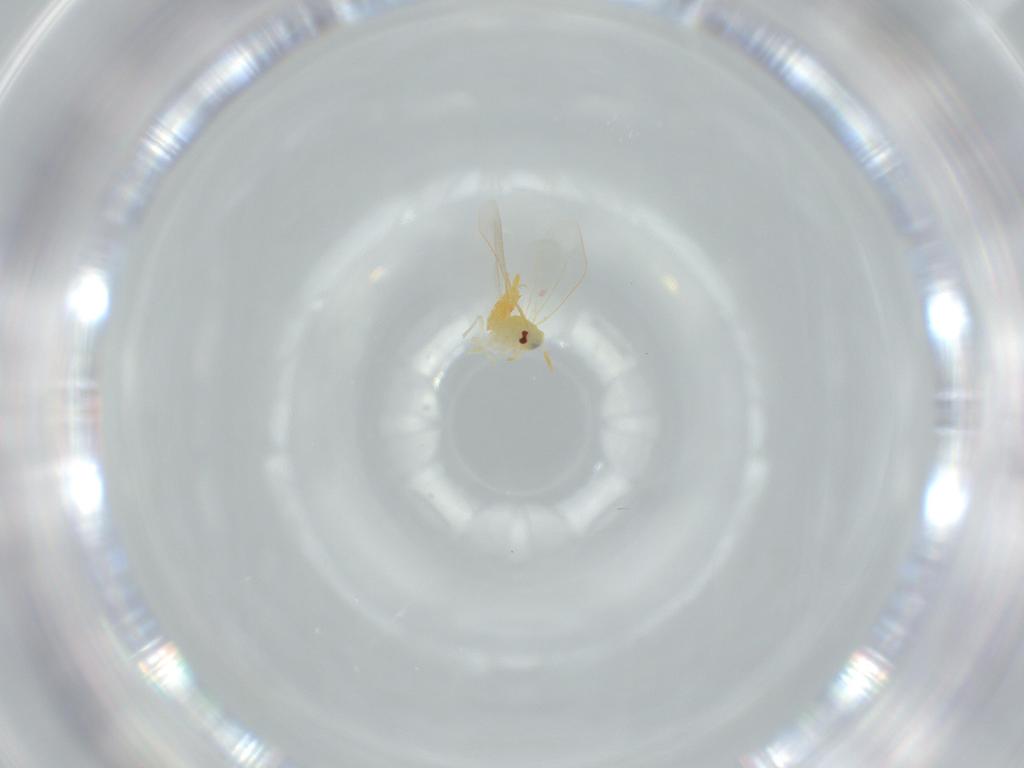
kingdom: Animalia
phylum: Arthropoda
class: Insecta
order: Hemiptera
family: Aleyrodidae
